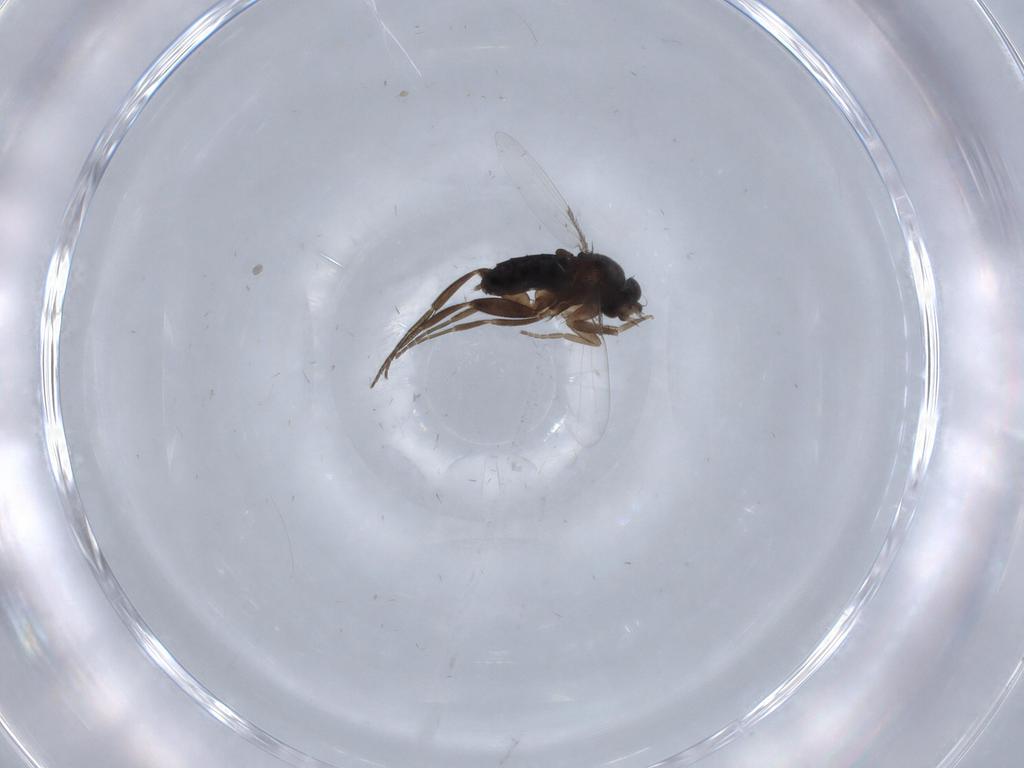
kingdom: Animalia
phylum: Arthropoda
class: Insecta
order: Diptera
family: Phoridae
